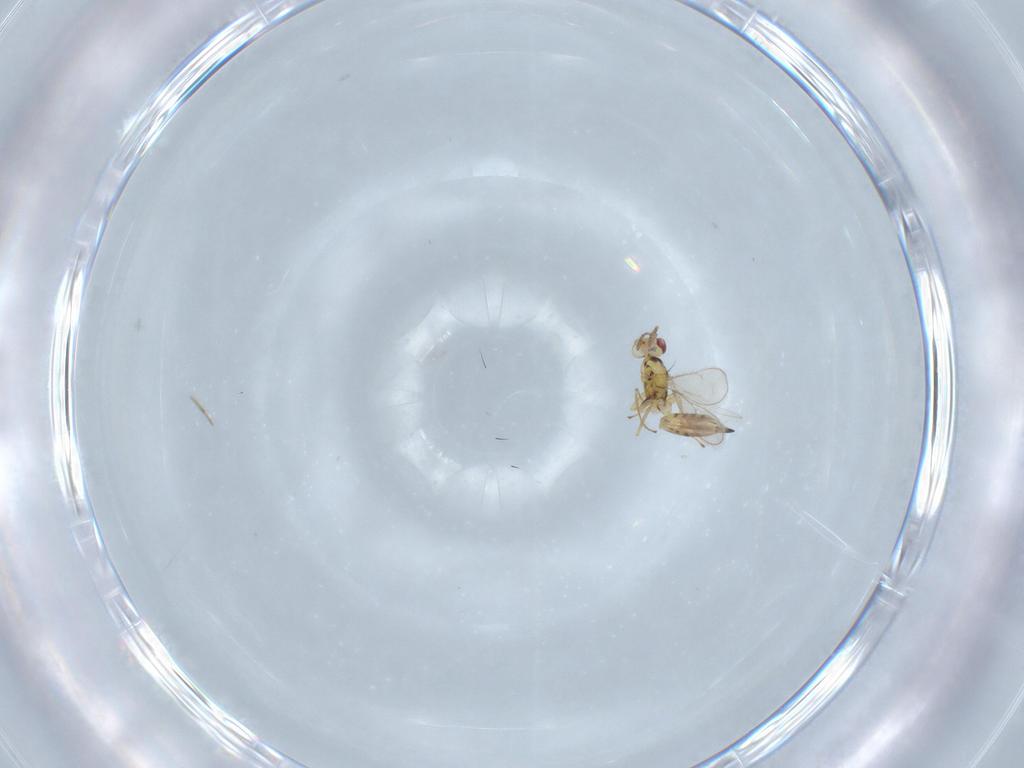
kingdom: Animalia
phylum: Arthropoda
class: Insecta
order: Hymenoptera
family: Eulophidae
